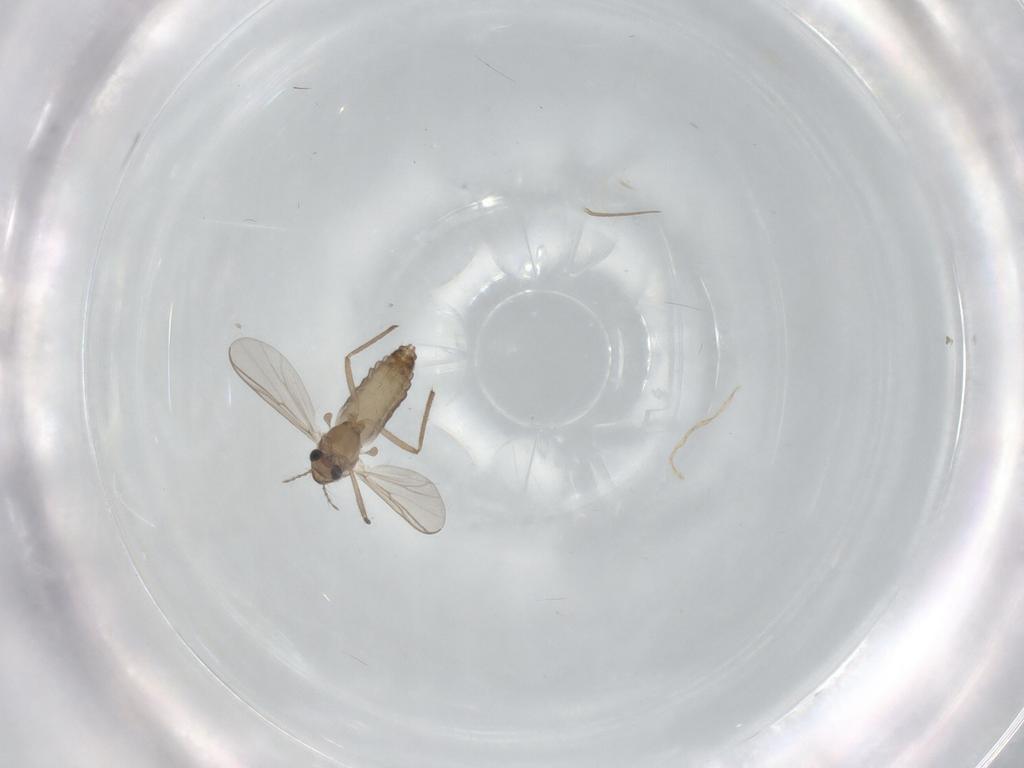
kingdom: Animalia
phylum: Arthropoda
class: Insecta
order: Diptera
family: Chironomidae
